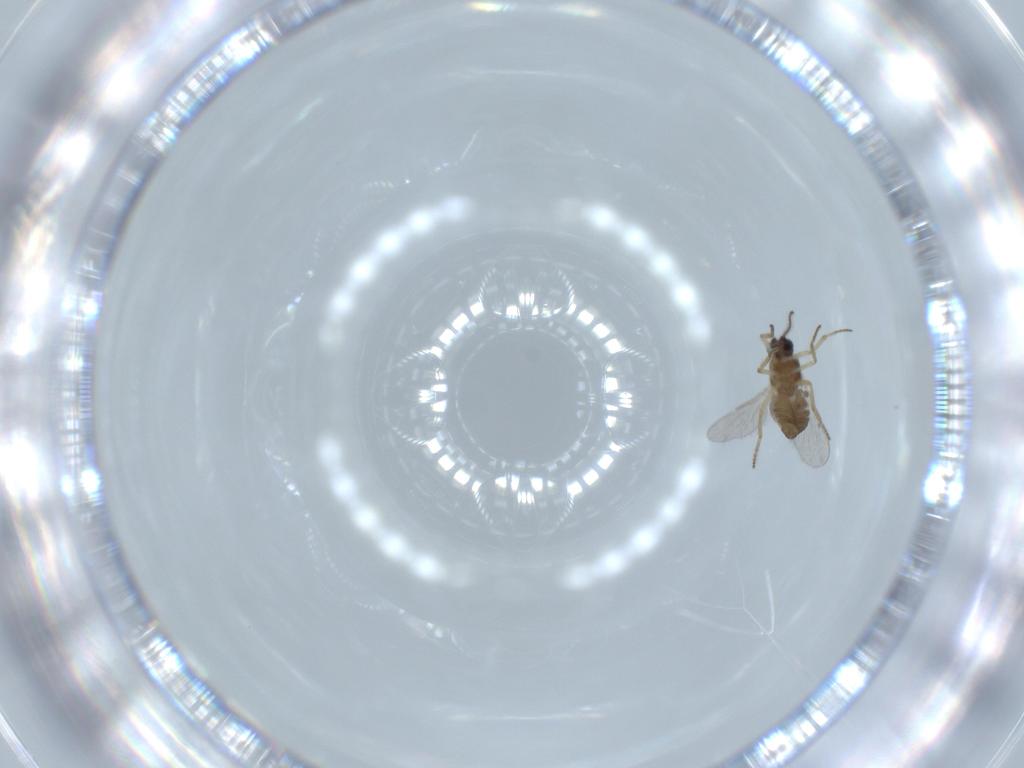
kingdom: Animalia
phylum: Arthropoda
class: Insecta
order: Diptera
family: Ceratopogonidae
